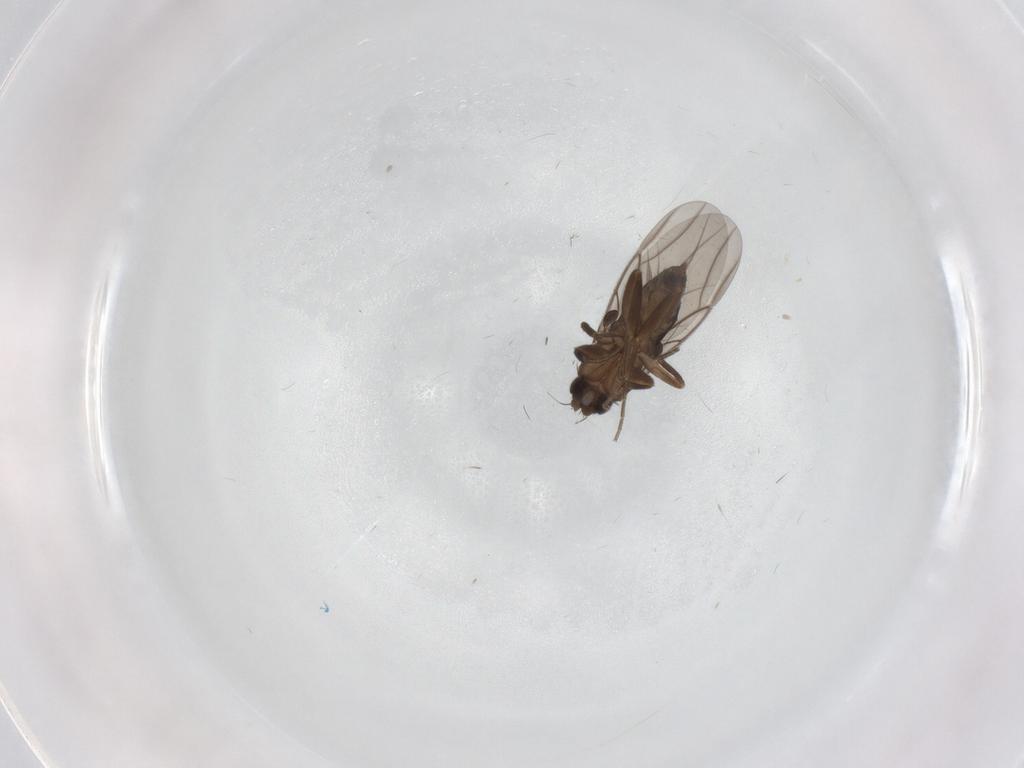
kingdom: Animalia
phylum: Arthropoda
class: Insecta
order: Diptera
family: Phoridae
